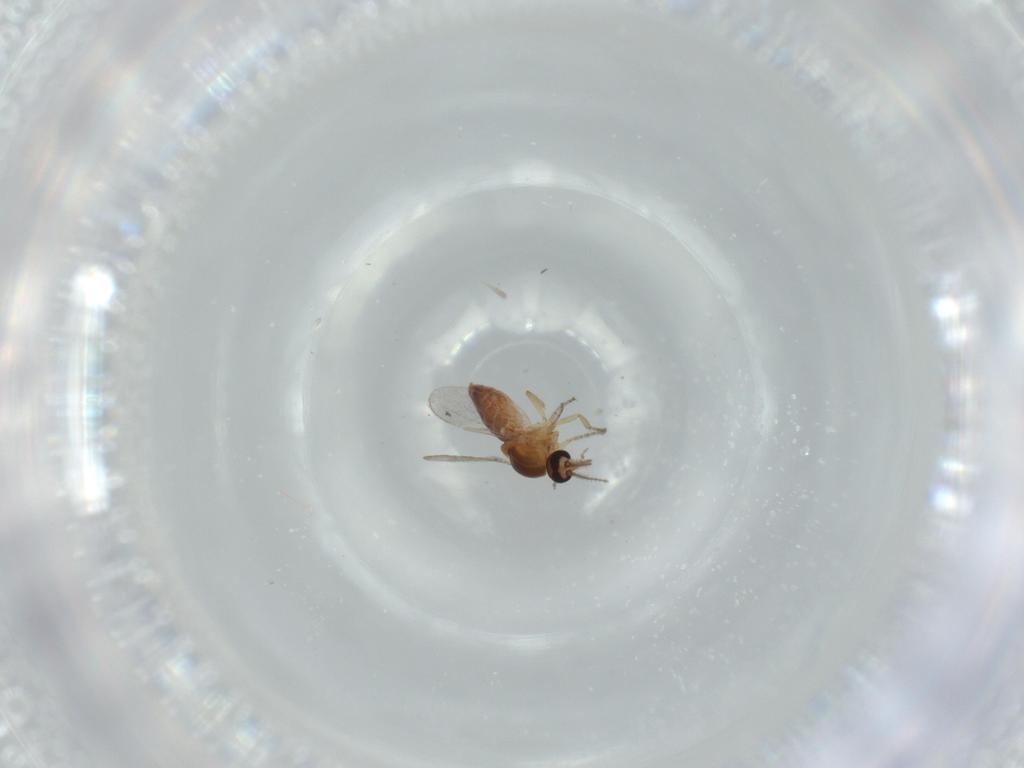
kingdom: Animalia
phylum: Arthropoda
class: Insecta
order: Diptera
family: Ceratopogonidae
